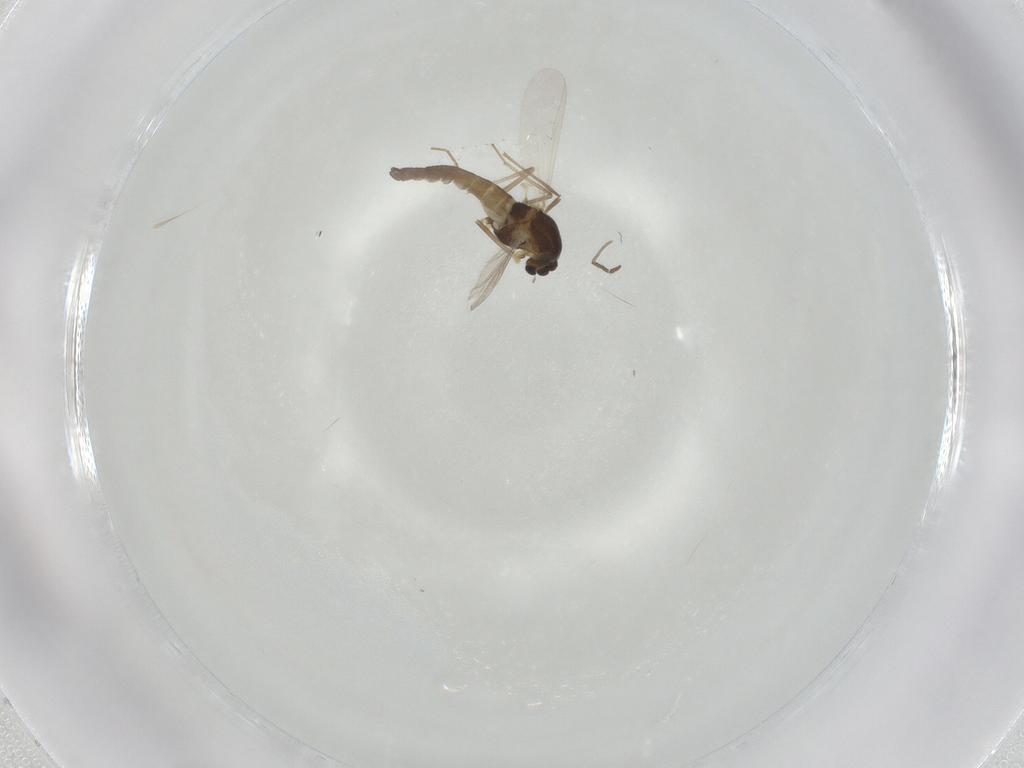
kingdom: Animalia
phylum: Arthropoda
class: Insecta
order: Diptera
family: Chironomidae
